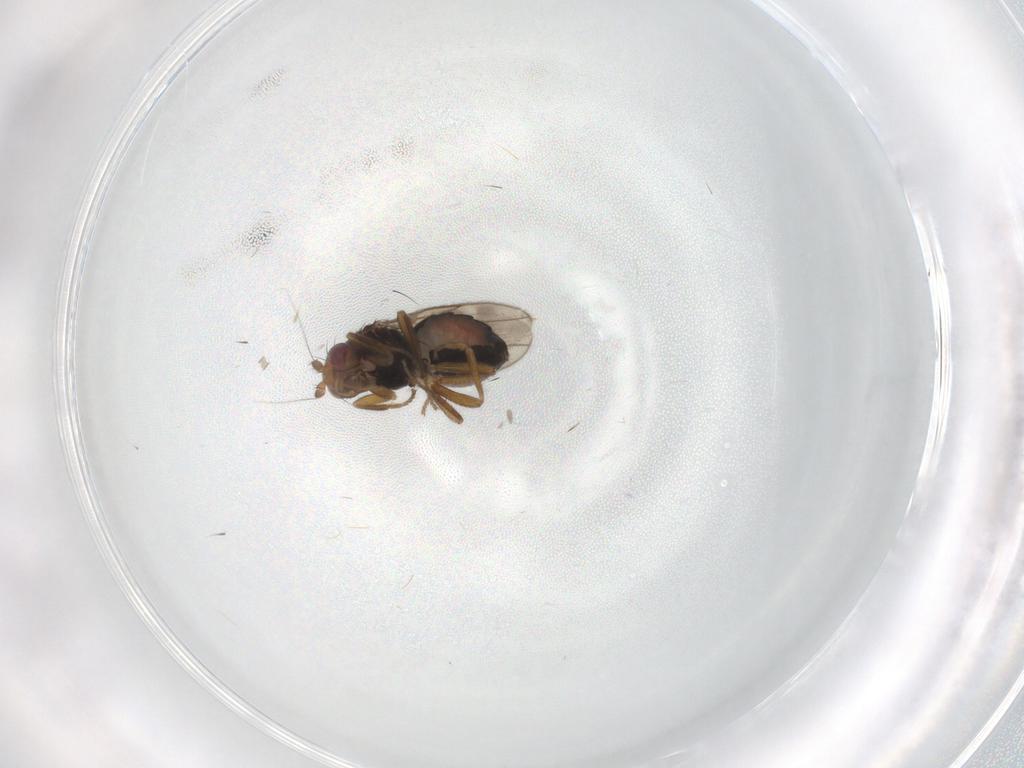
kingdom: Animalia
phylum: Arthropoda
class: Insecta
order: Diptera
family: Sphaeroceridae
